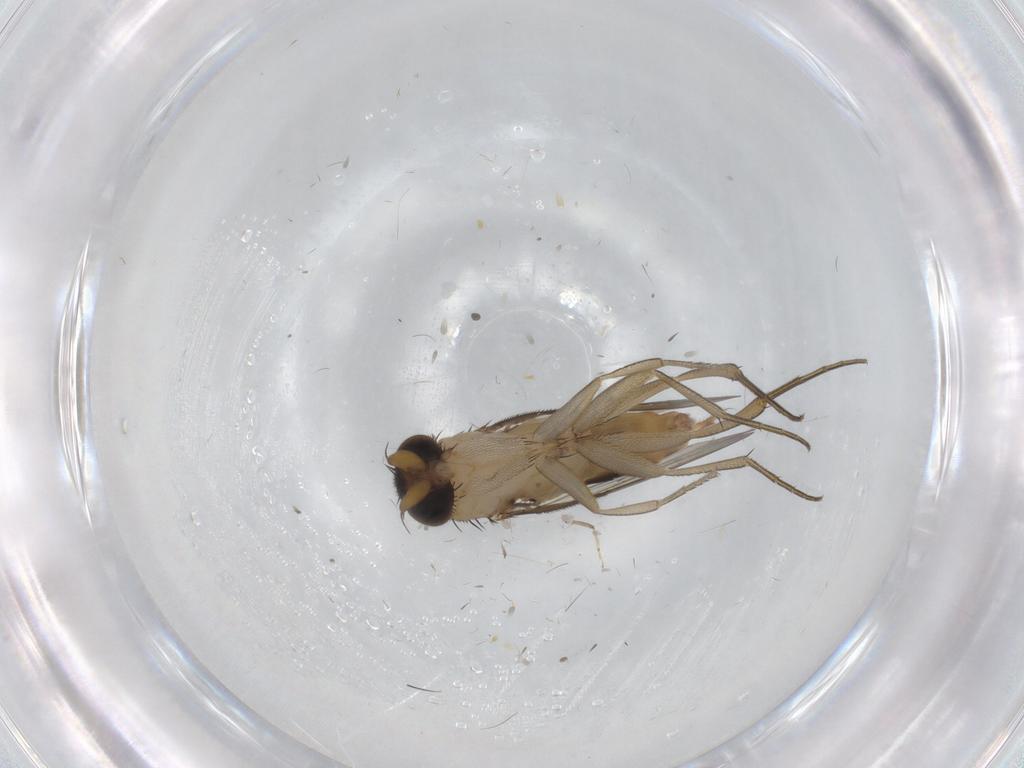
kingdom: Animalia
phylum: Arthropoda
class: Insecta
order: Diptera
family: Phoridae
